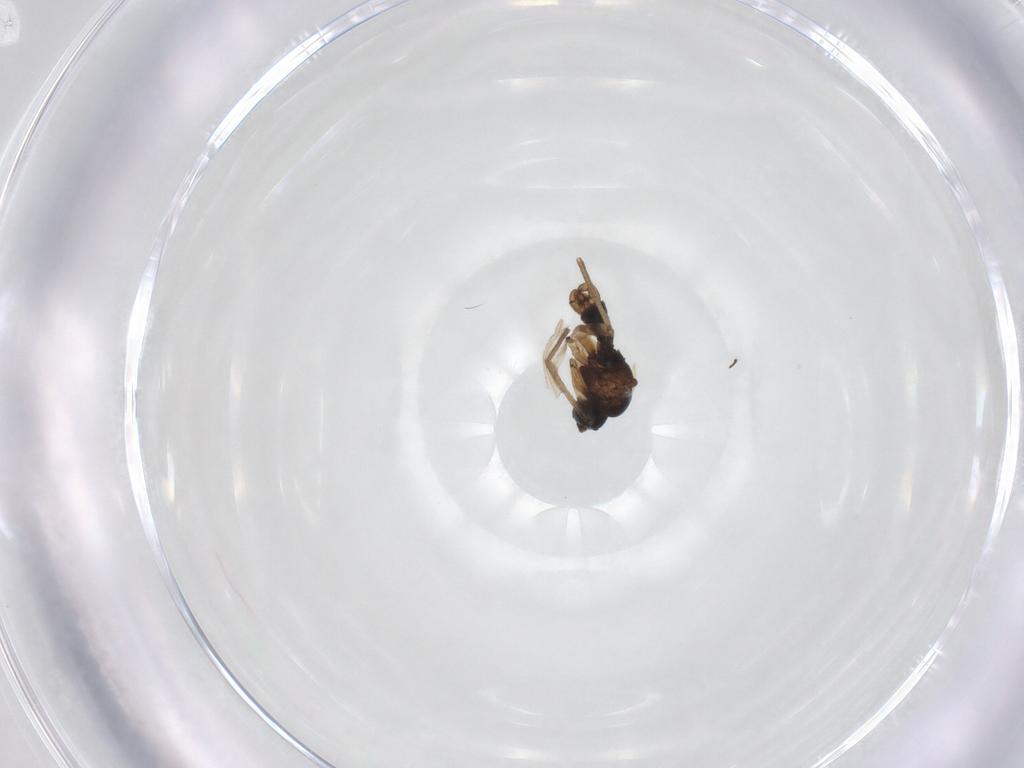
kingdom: Animalia
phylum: Arthropoda
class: Insecta
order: Diptera
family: Sciaridae
